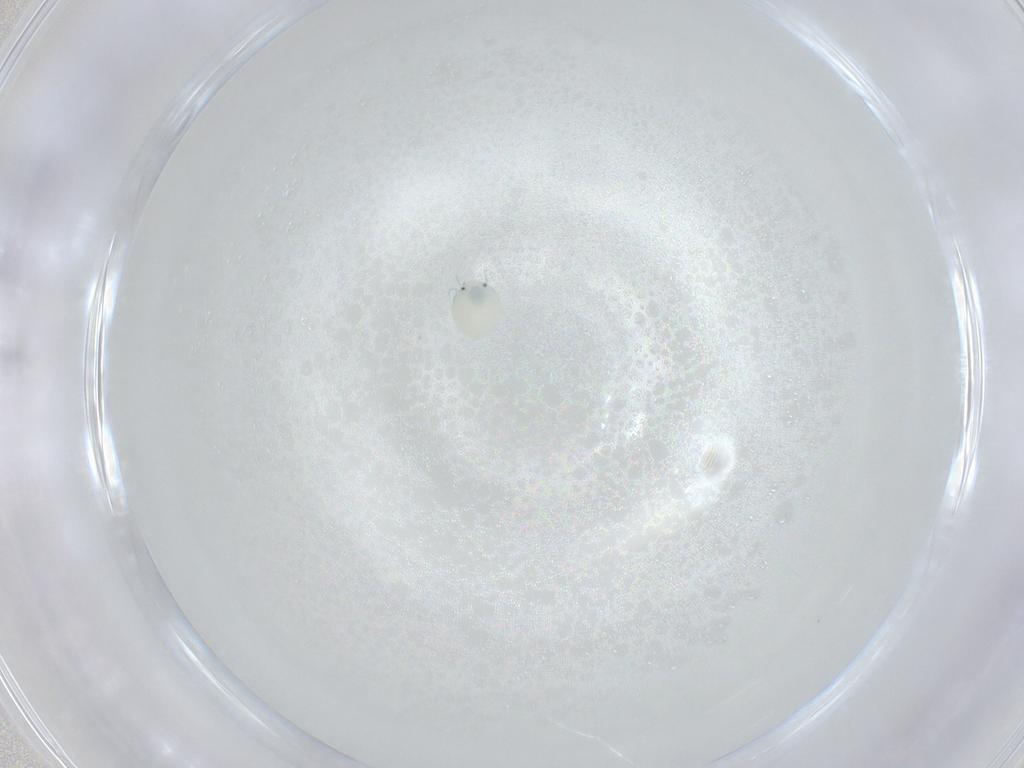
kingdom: Animalia
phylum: Arthropoda
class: Arachnida
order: Trombidiformes
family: Arrenuridae
